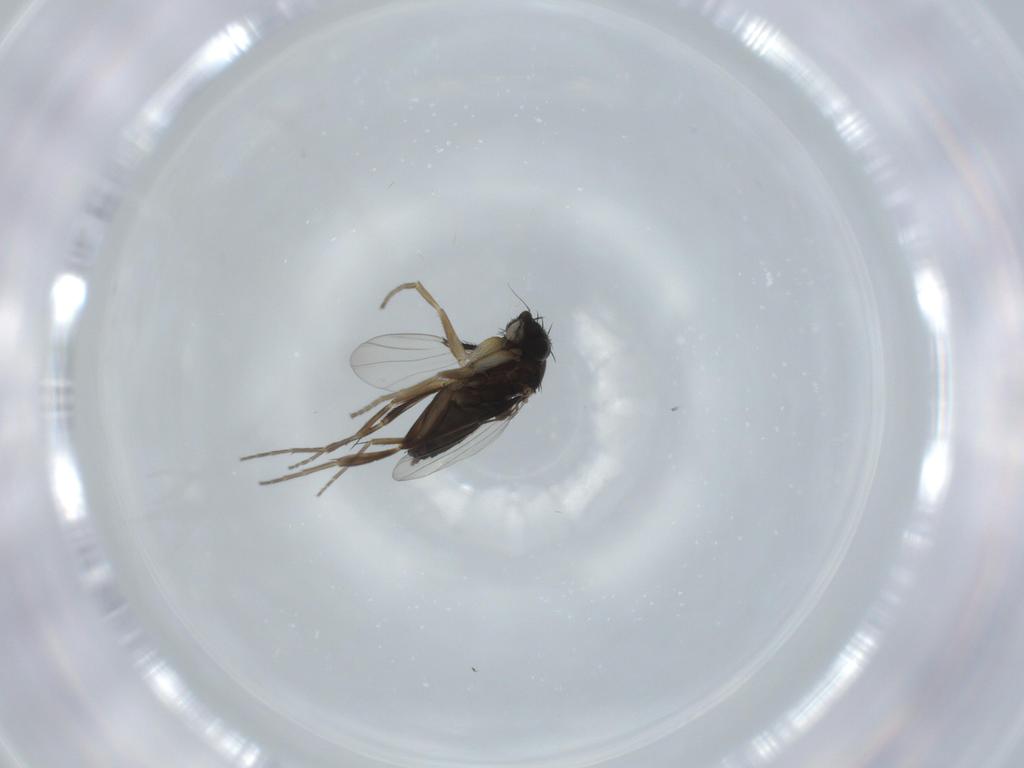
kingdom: Animalia
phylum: Arthropoda
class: Insecta
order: Diptera
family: Phoridae
